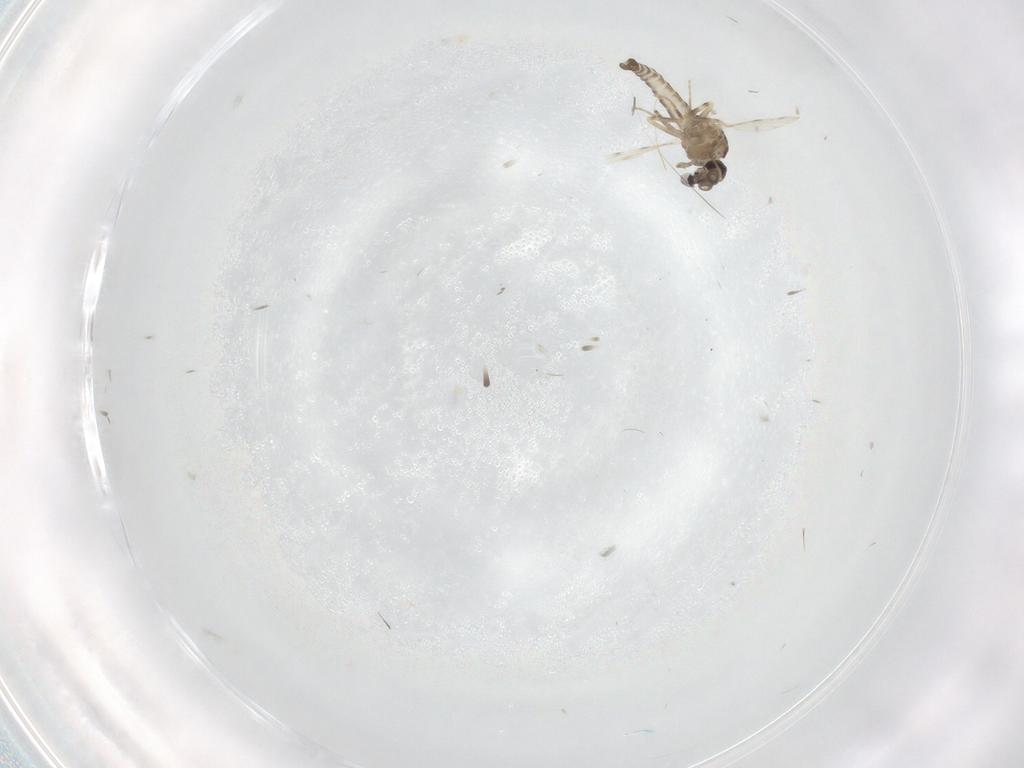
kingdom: Animalia
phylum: Arthropoda
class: Insecta
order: Diptera
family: Ceratopogonidae
